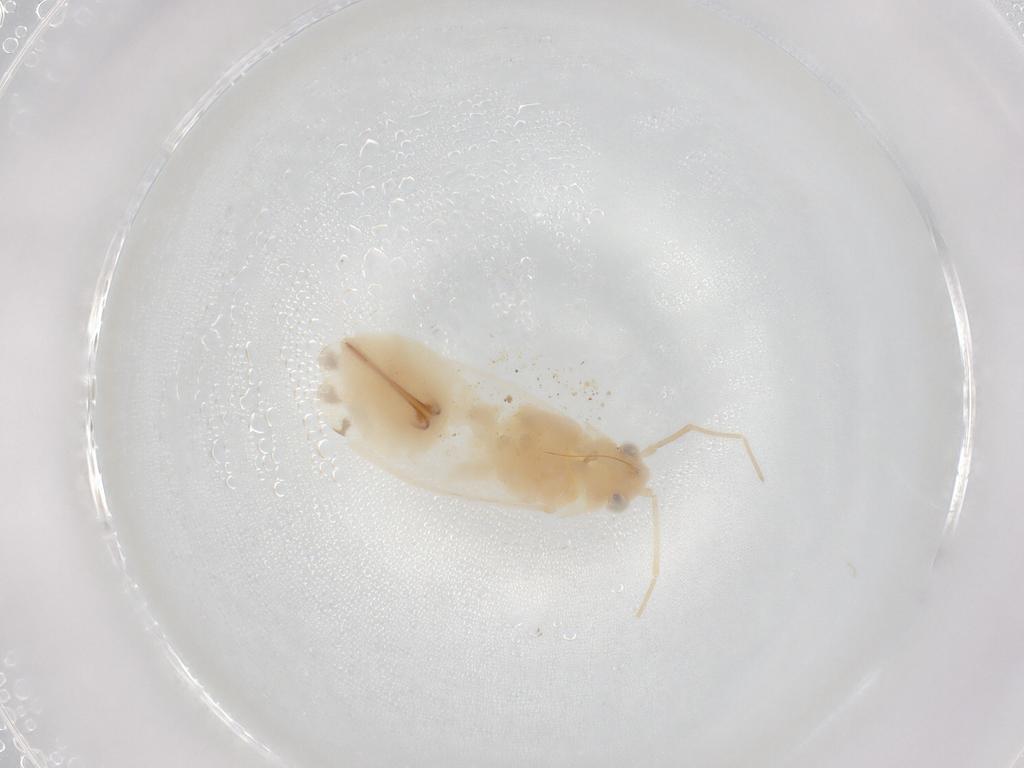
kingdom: Animalia
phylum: Arthropoda
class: Insecta
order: Hemiptera
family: Miridae
